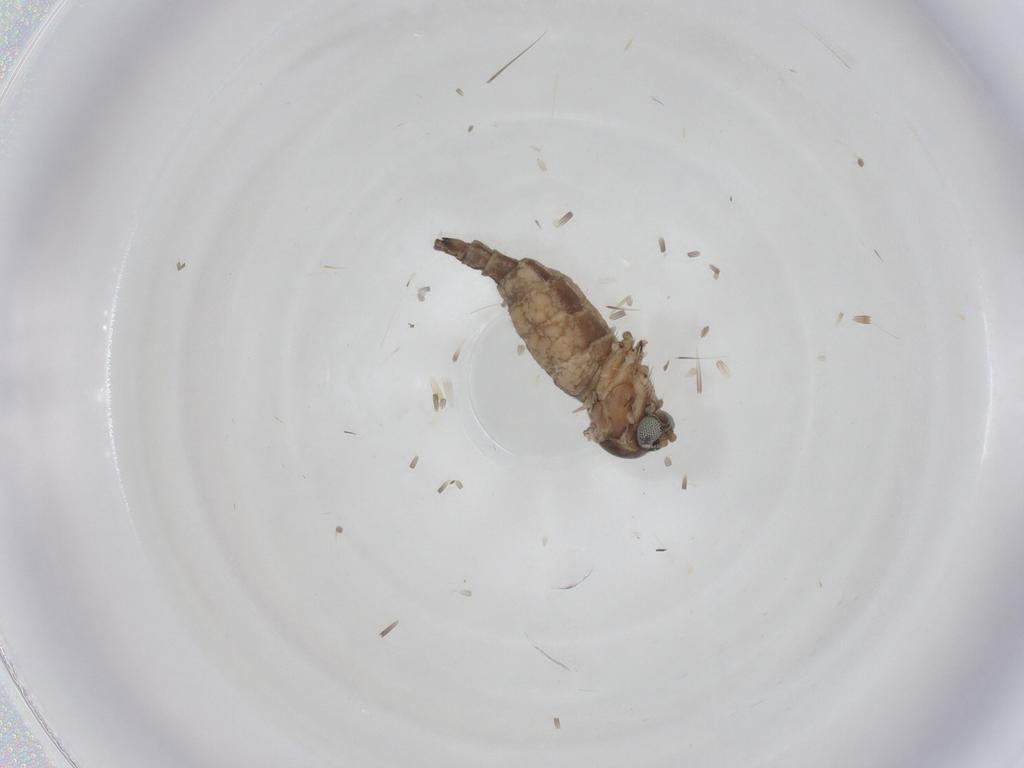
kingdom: Animalia
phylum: Arthropoda
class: Insecta
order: Diptera
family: Sciaridae
